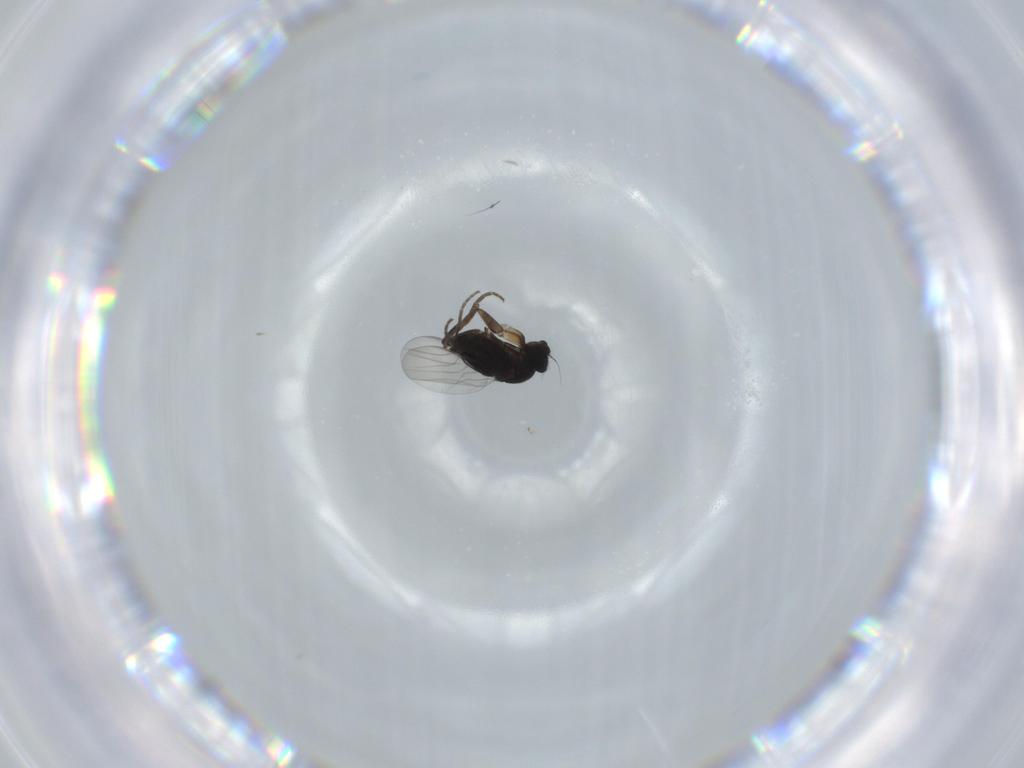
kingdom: Animalia
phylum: Arthropoda
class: Insecta
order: Diptera
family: Phoridae
